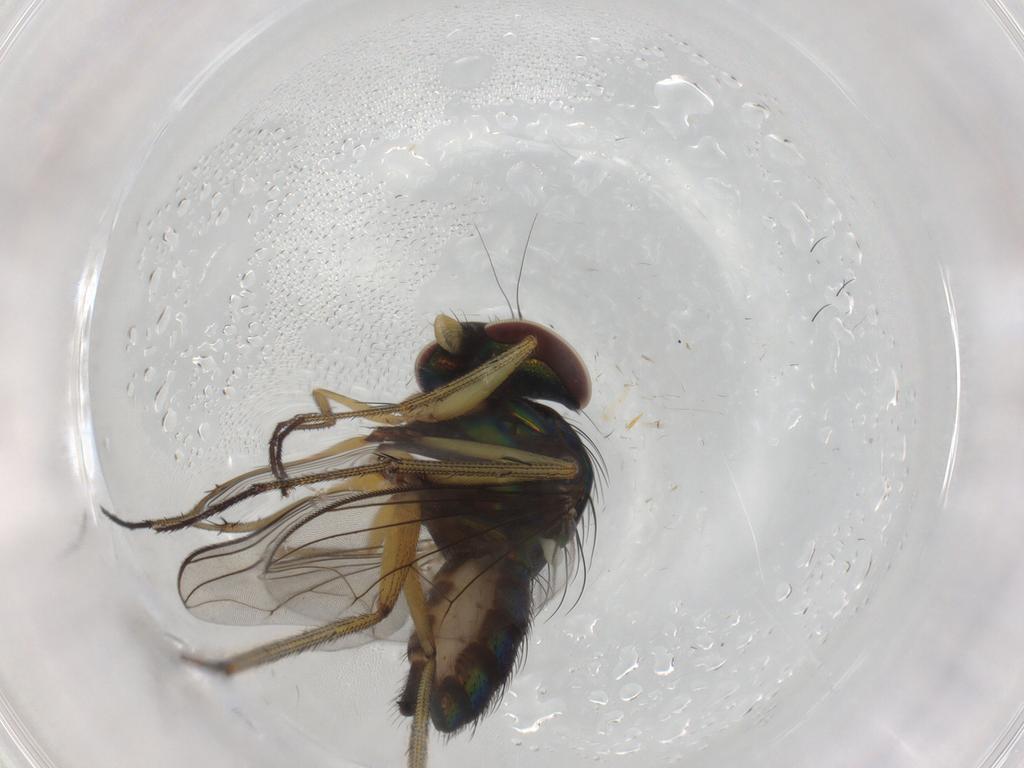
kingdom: Animalia
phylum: Arthropoda
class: Insecta
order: Diptera
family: Dolichopodidae
